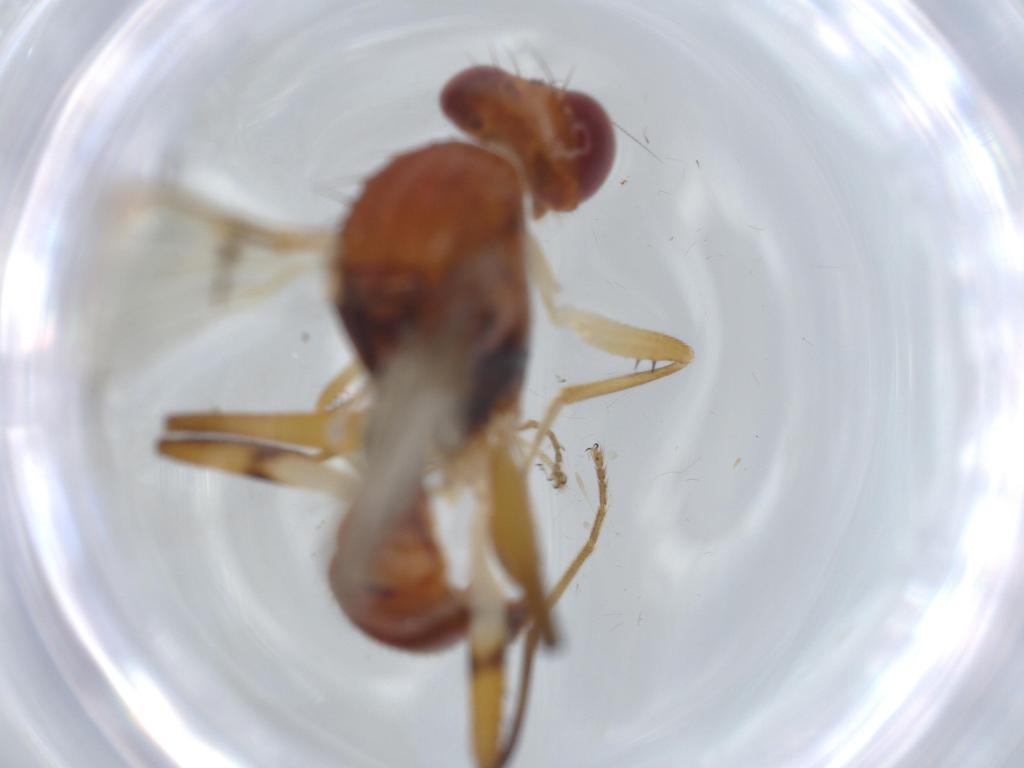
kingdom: Animalia
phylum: Arthropoda
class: Insecta
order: Diptera
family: Richardiidae
